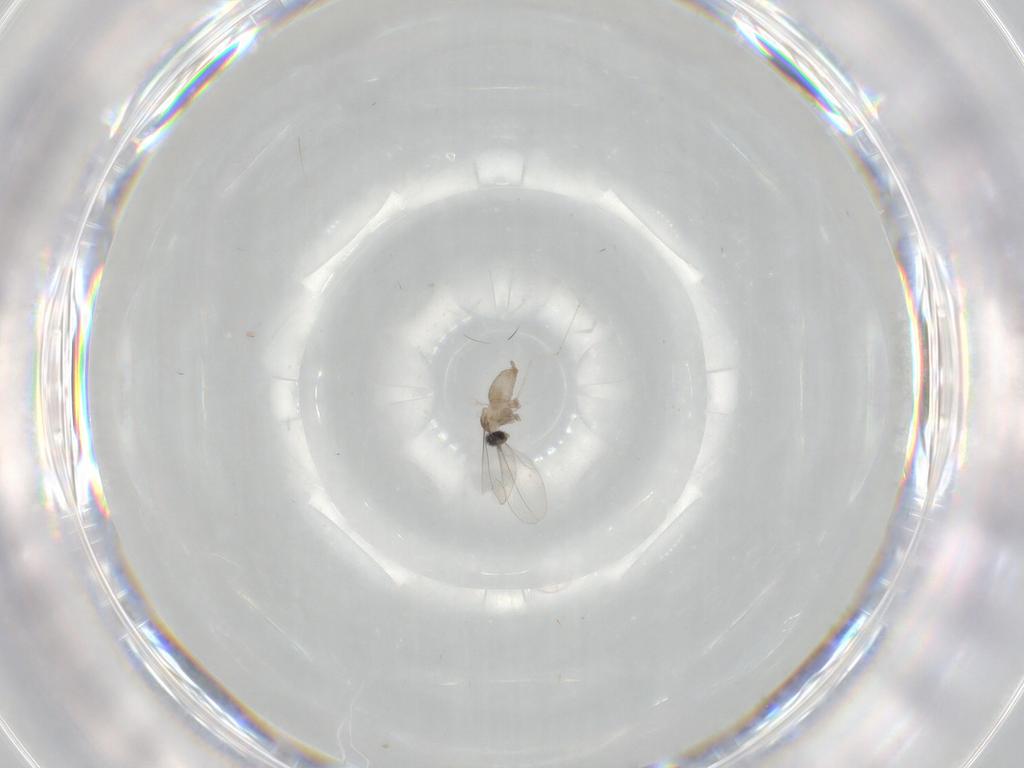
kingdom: Animalia
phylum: Arthropoda
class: Insecta
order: Diptera
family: Cecidomyiidae
